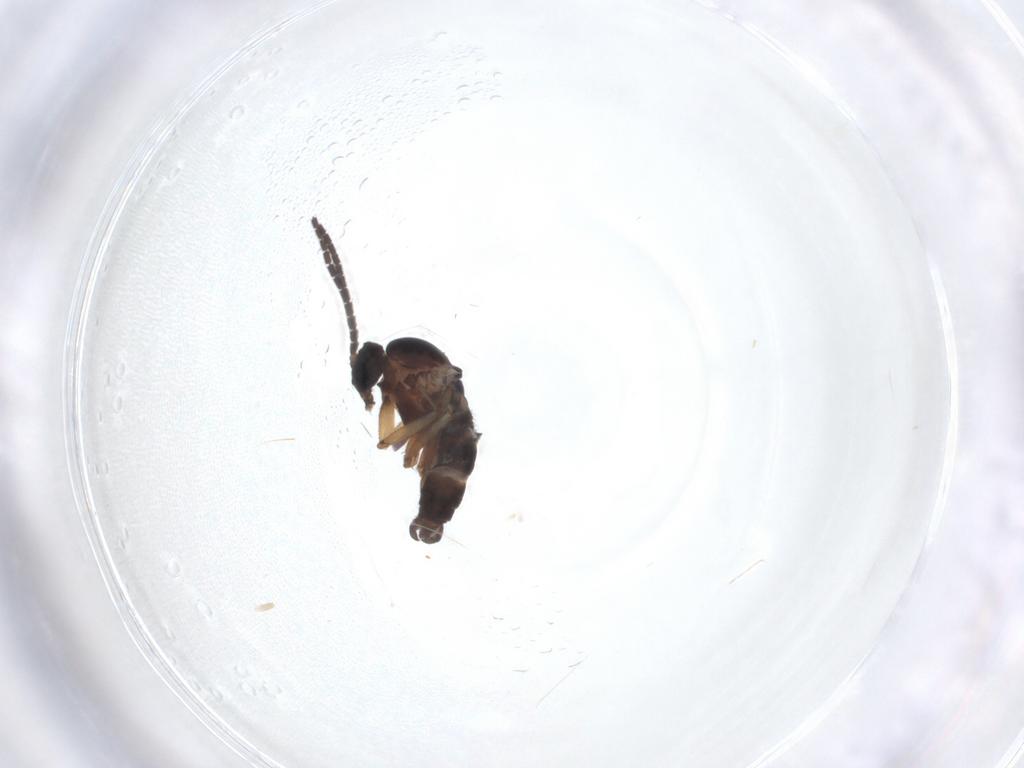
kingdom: Animalia
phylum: Arthropoda
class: Insecta
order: Diptera
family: Sciaridae
